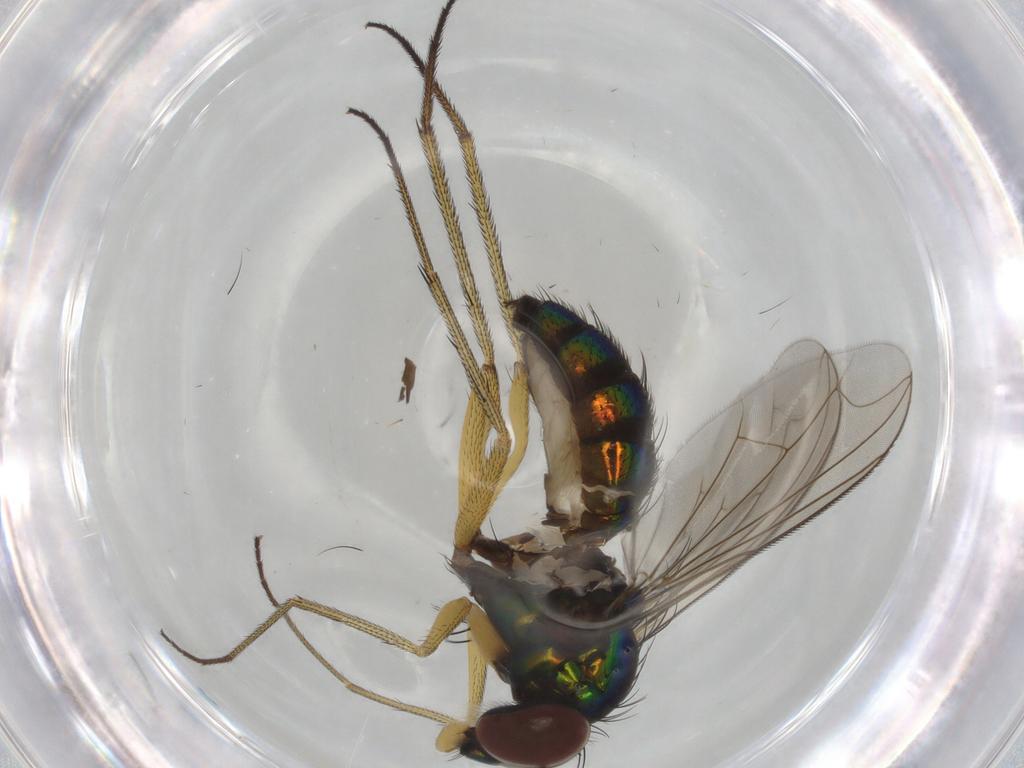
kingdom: Animalia
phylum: Arthropoda
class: Insecta
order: Diptera
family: Dolichopodidae
